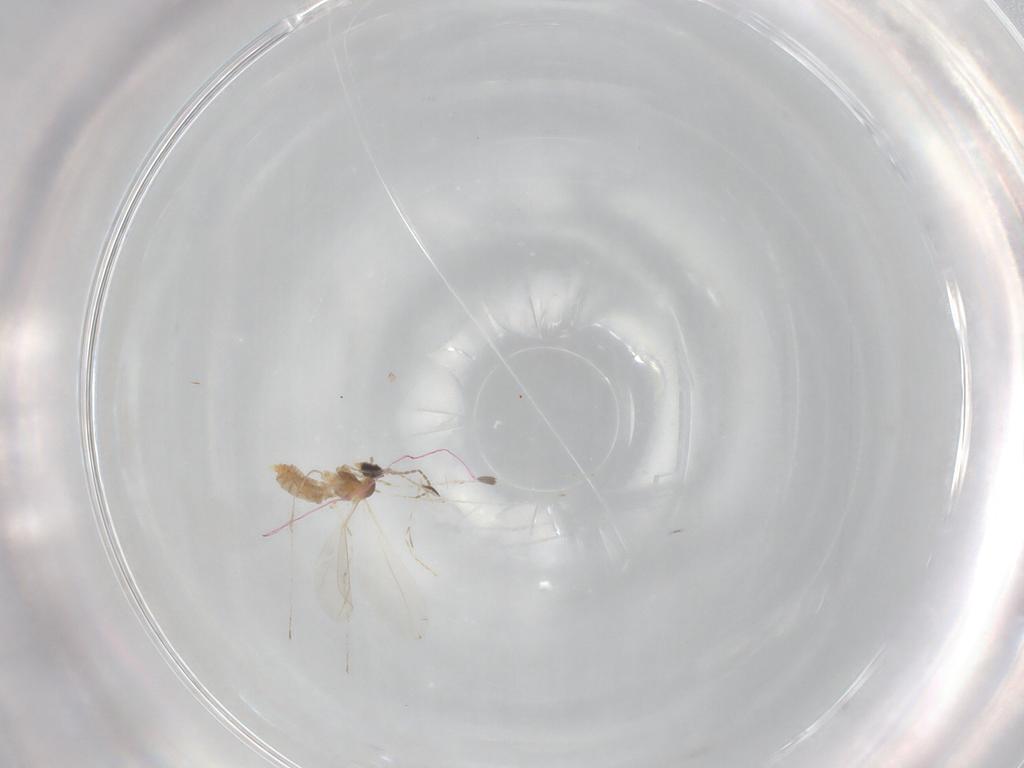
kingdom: Animalia
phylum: Arthropoda
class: Insecta
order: Diptera
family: Cecidomyiidae
